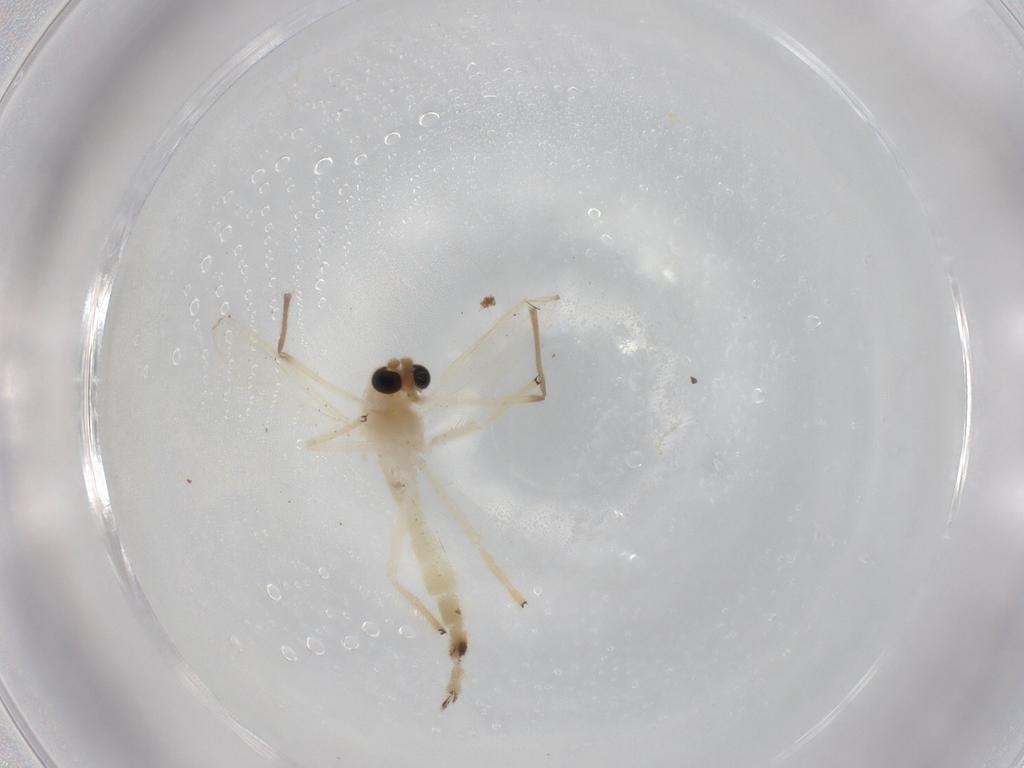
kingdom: Animalia
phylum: Arthropoda
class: Insecta
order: Diptera
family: Chironomidae
